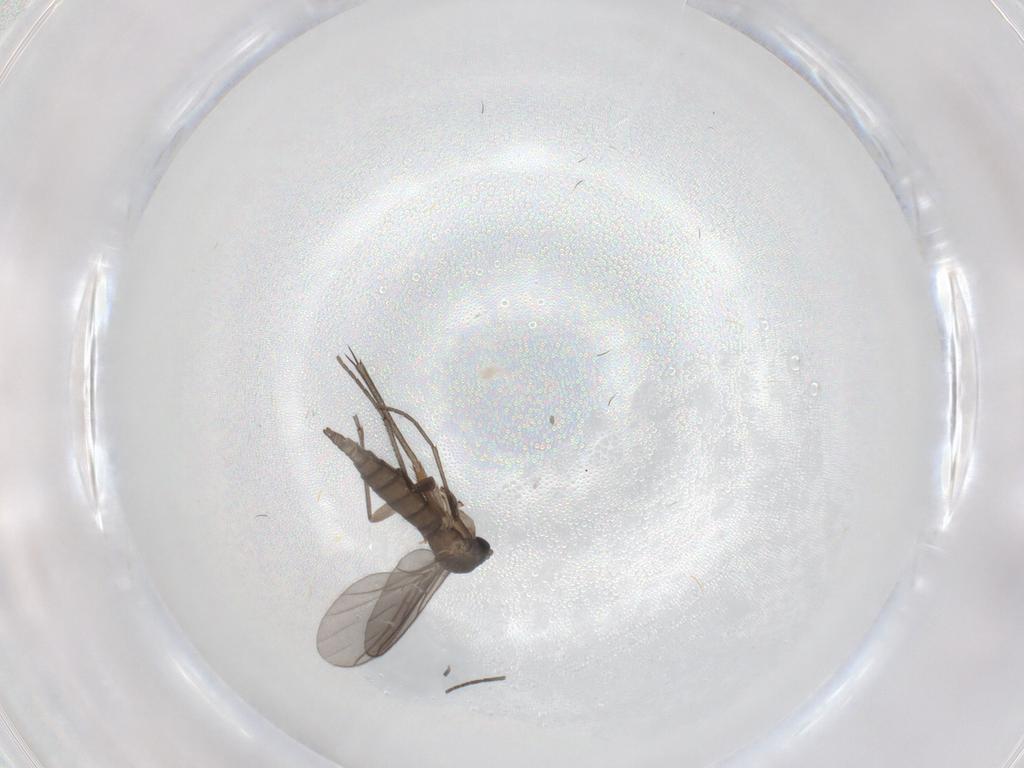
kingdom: Animalia
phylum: Arthropoda
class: Insecta
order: Diptera
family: Sciaridae
